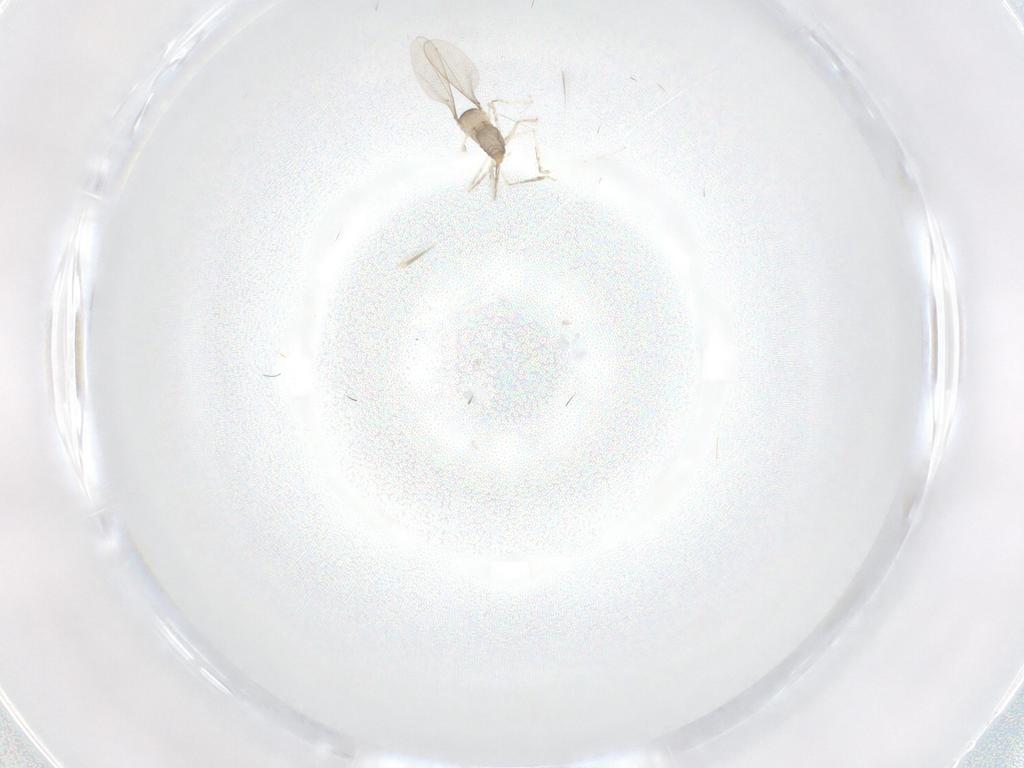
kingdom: Animalia
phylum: Arthropoda
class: Insecta
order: Diptera
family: Cecidomyiidae
